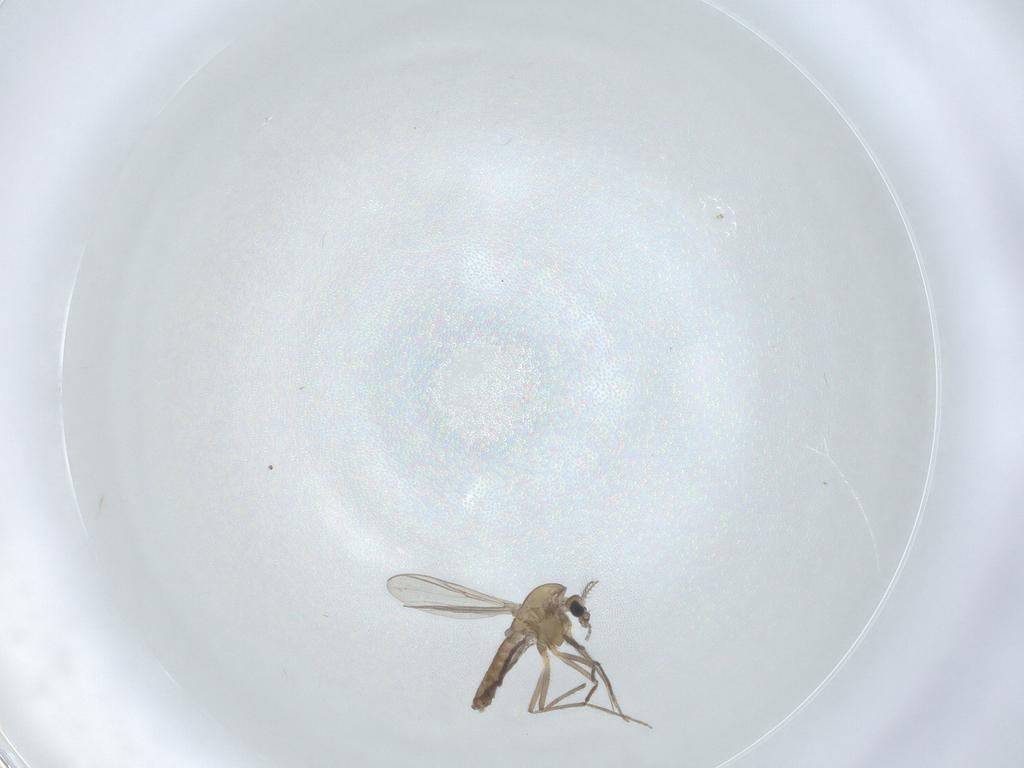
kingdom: Animalia
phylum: Arthropoda
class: Insecta
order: Diptera
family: Chironomidae
